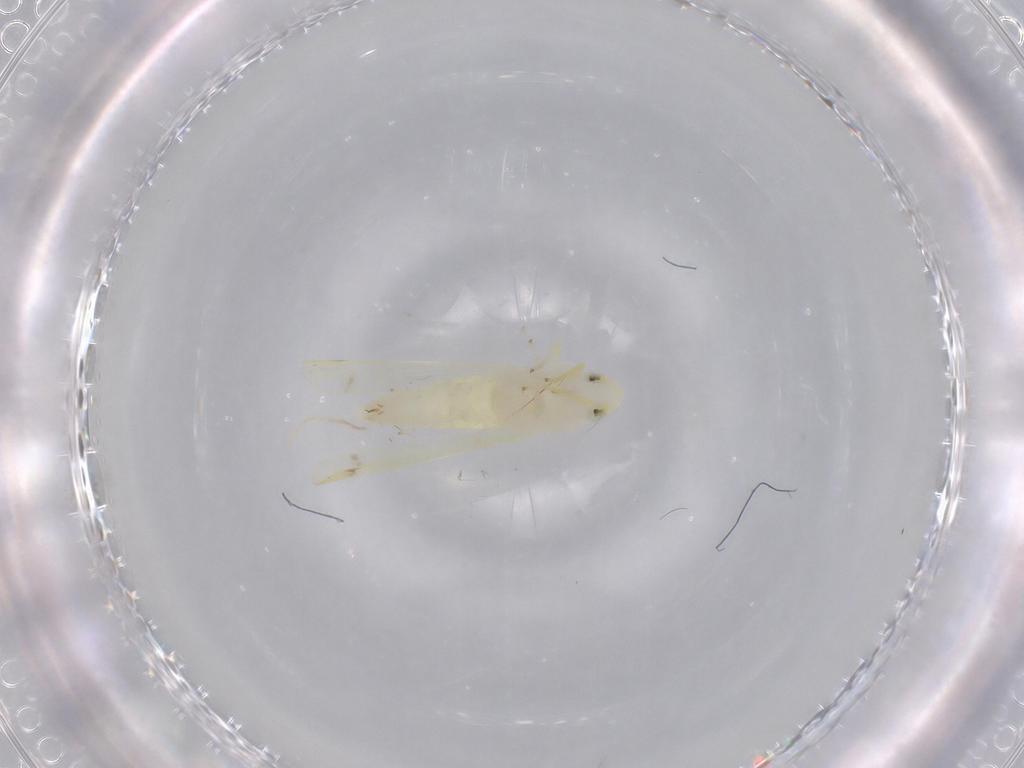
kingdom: Animalia
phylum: Arthropoda
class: Insecta
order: Hemiptera
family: Cicadellidae
